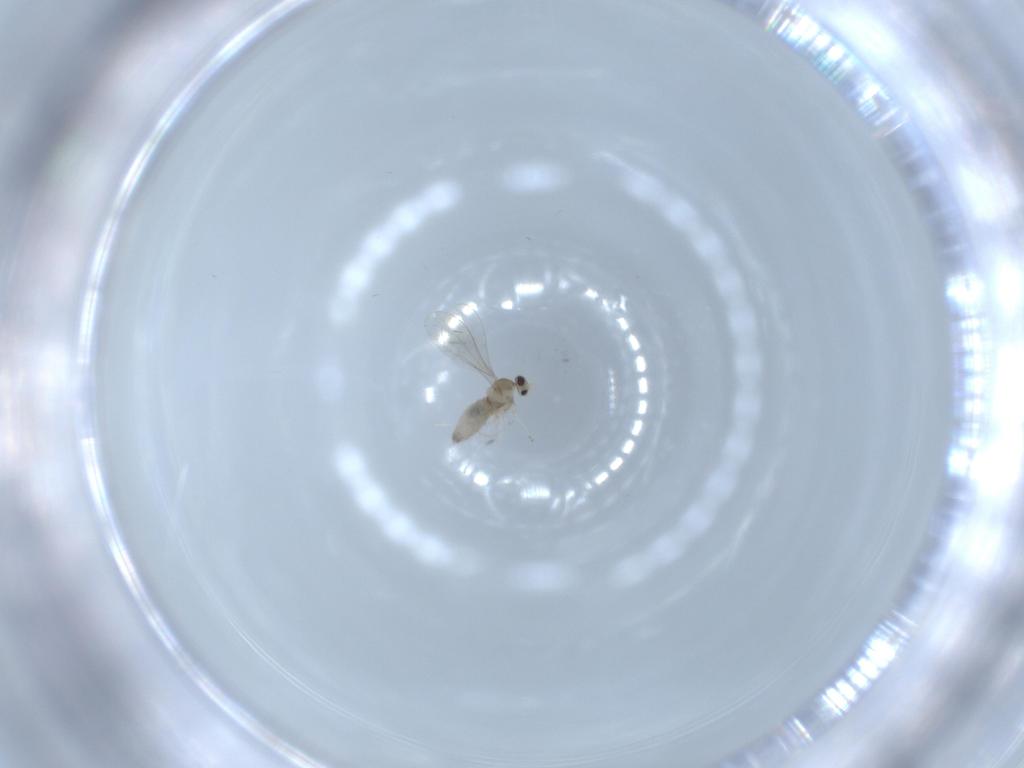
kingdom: Animalia
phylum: Arthropoda
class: Insecta
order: Diptera
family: Cecidomyiidae
